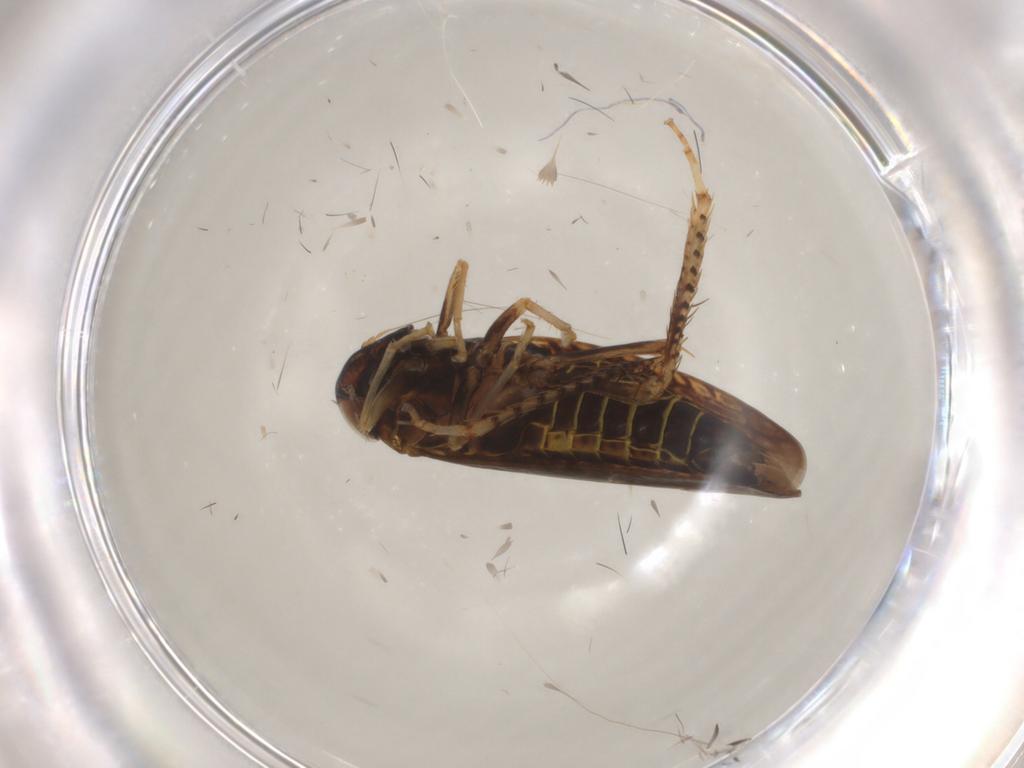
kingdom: Animalia
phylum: Arthropoda
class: Insecta
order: Hemiptera
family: Cicadellidae
